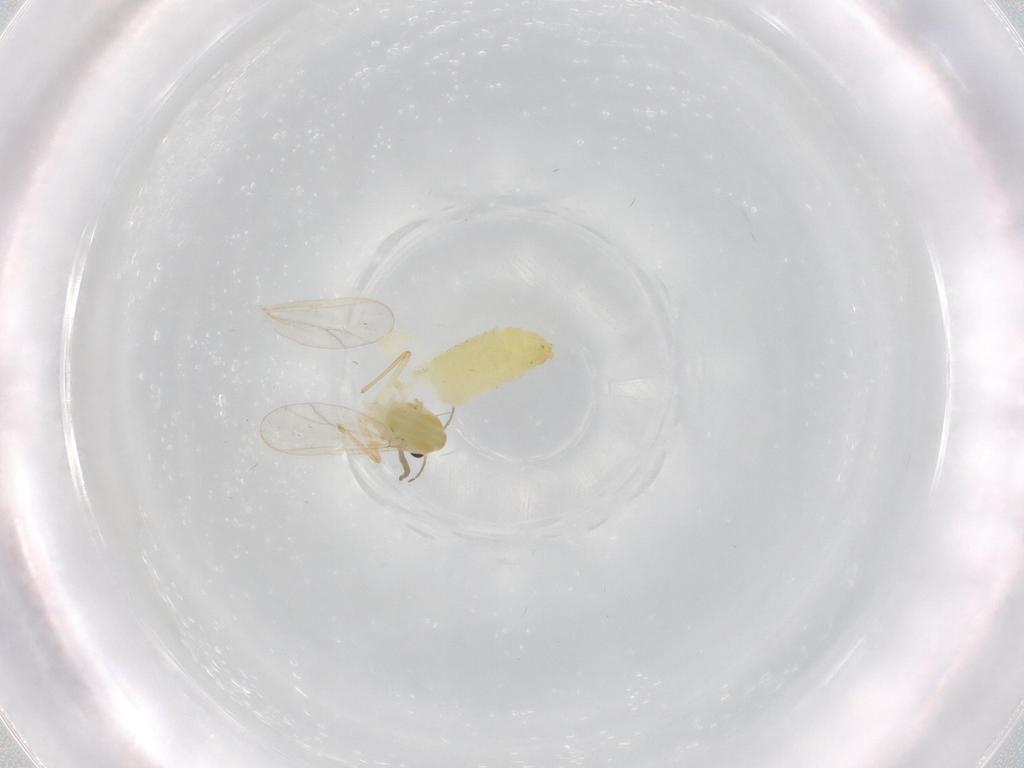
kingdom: Animalia
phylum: Arthropoda
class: Insecta
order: Diptera
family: Chironomidae
